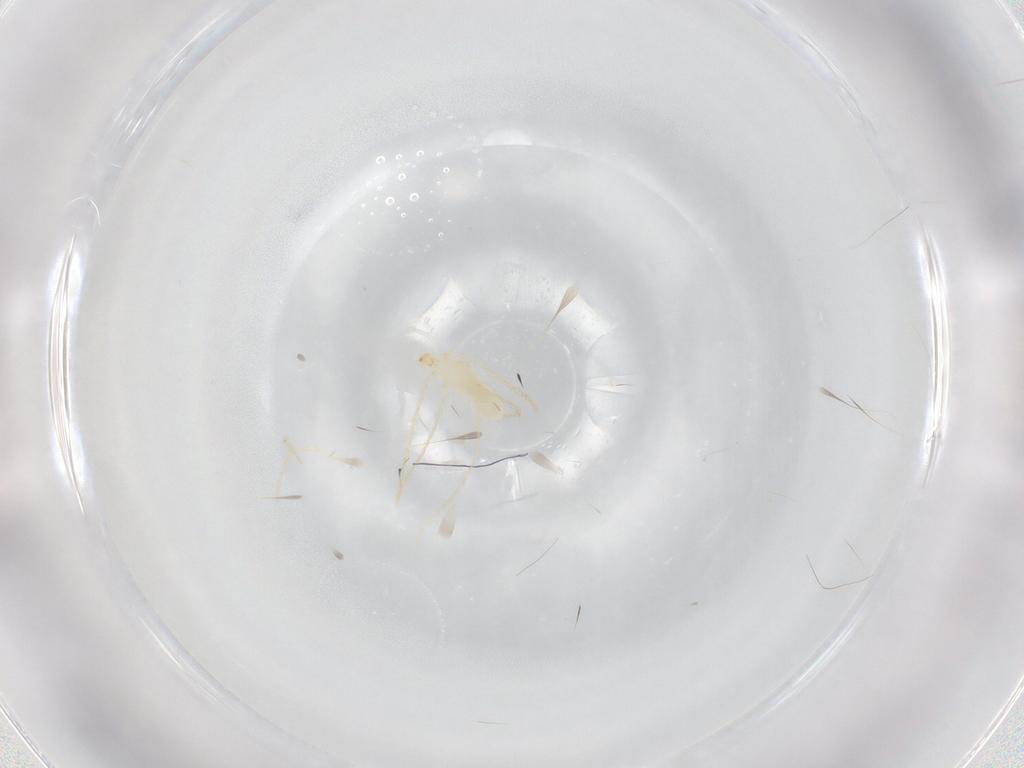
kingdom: Animalia
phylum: Arthropoda
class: Arachnida
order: Trombidiformes
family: Erythraeidae
